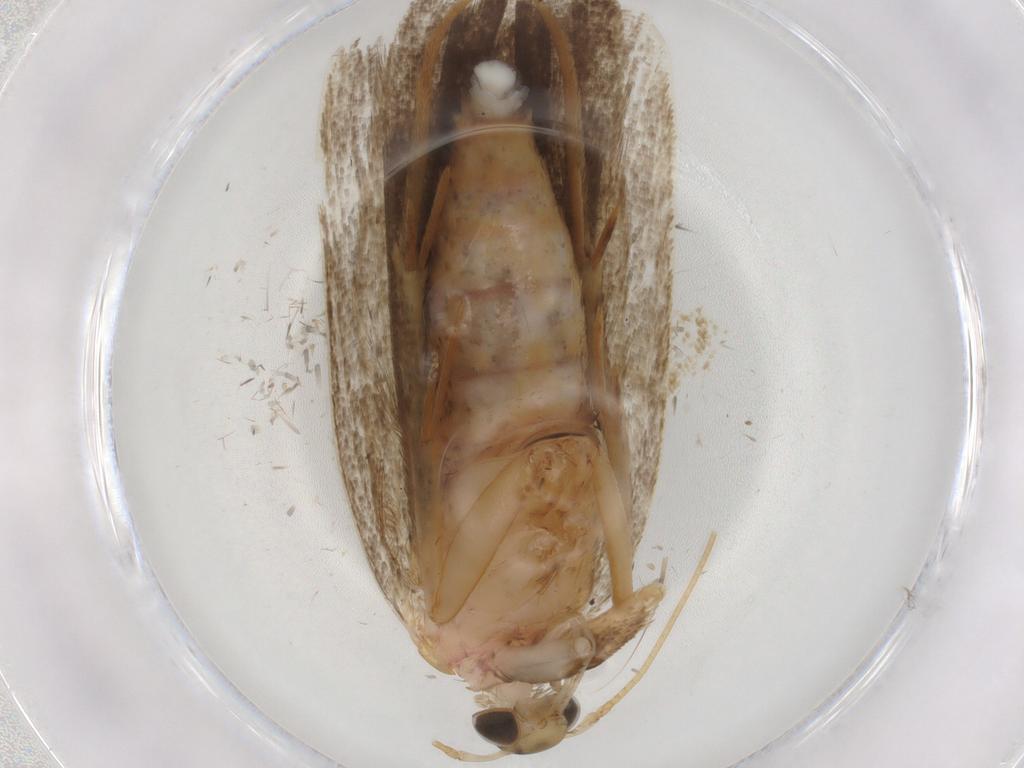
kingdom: Animalia
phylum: Arthropoda
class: Insecta
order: Lepidoptera
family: Autostichidae
